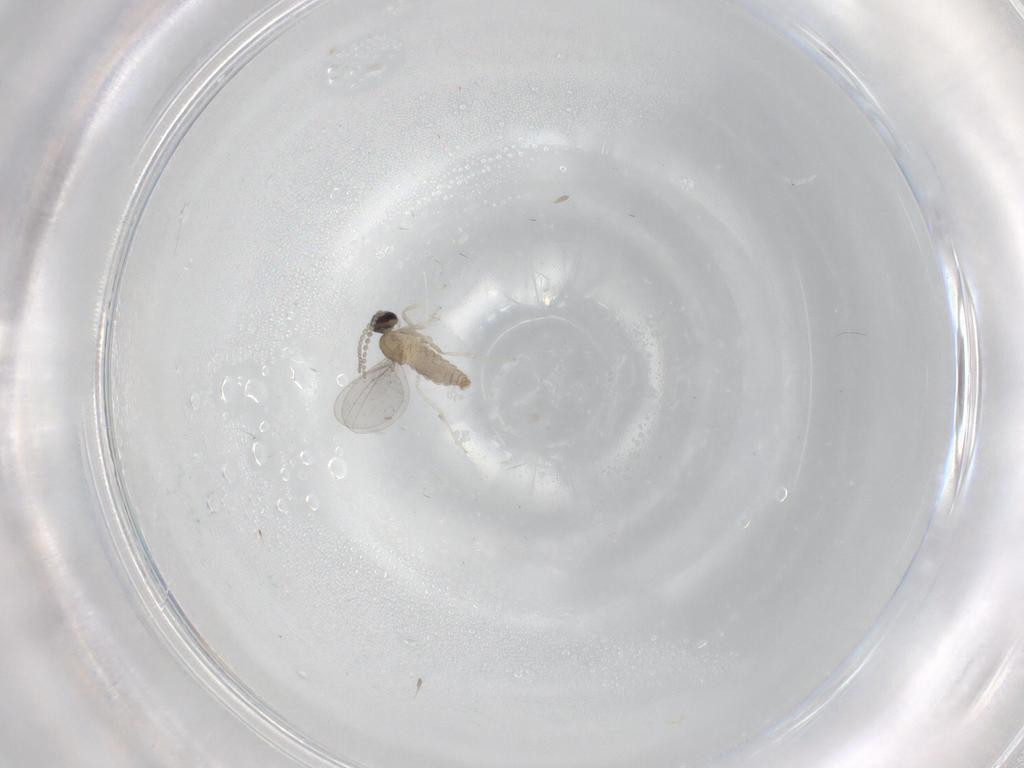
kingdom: Animalia
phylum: Arthropoda
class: Insecta
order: Diptera
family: Cecidomyiidae
